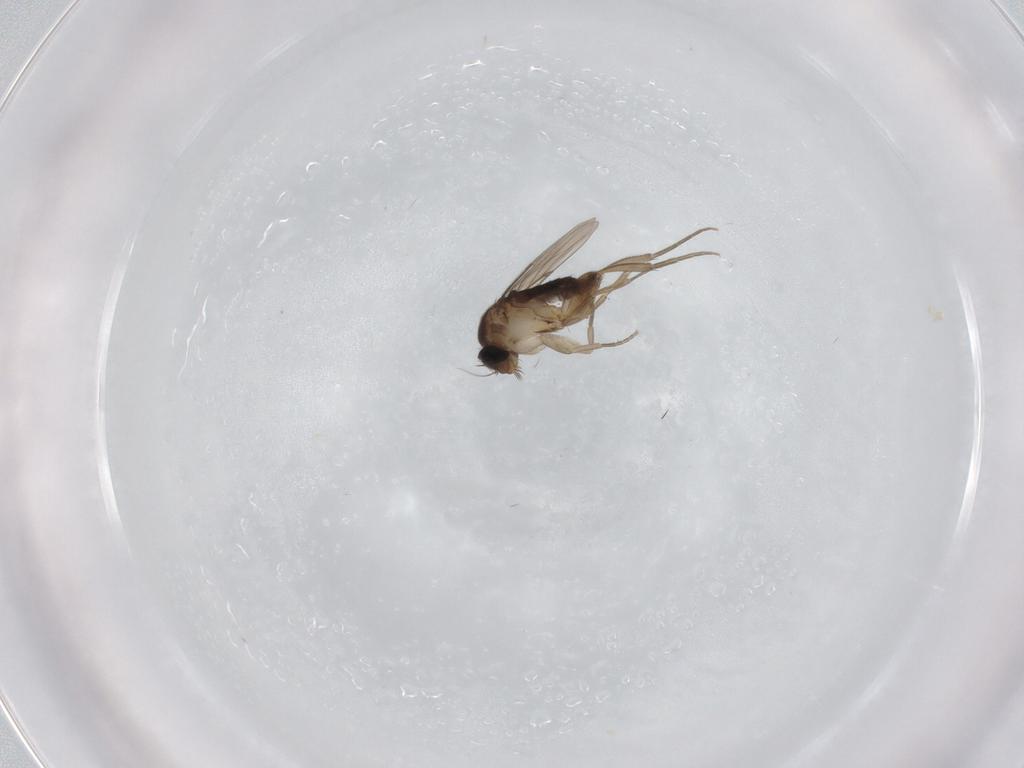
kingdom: Animalia
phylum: Arthropoda
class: Insecta
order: Diptera
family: Phoridae
